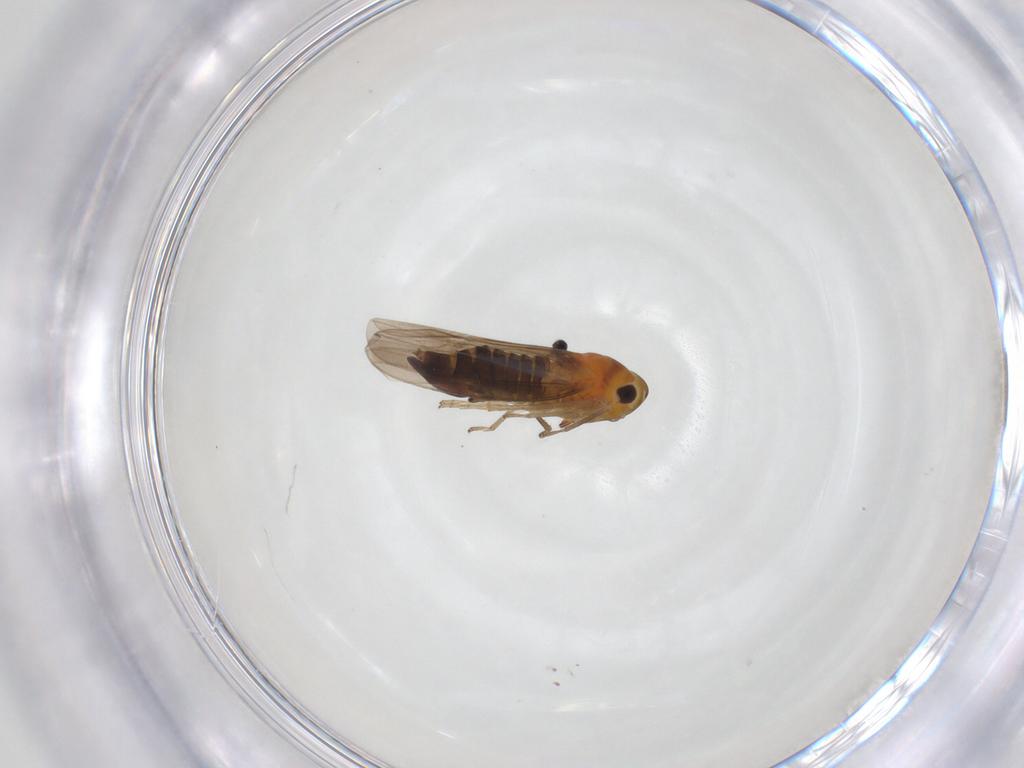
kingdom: Animalia
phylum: Arthropoda
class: Insecta
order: Hemiptera
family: Cicadellidae
